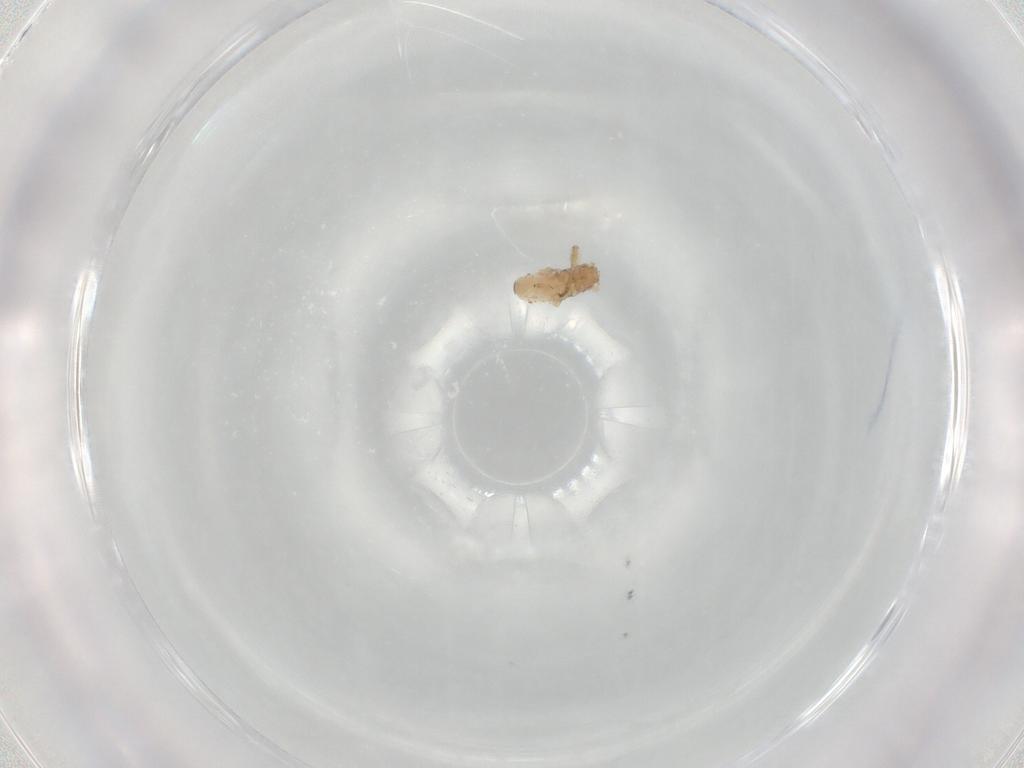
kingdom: Animalia
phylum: Arthropoda
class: Insecta
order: Hemiptera
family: Aphididae
